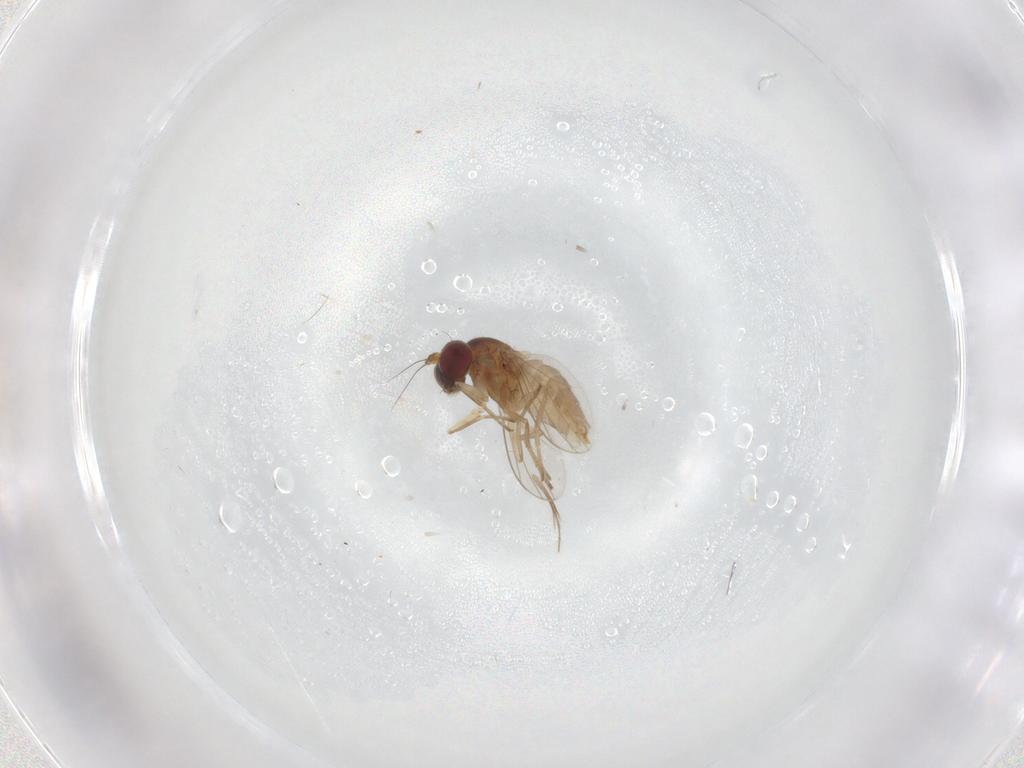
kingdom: Animalia
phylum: Arthropoda
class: Insecta
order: Diptera
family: Dolichopodidae
